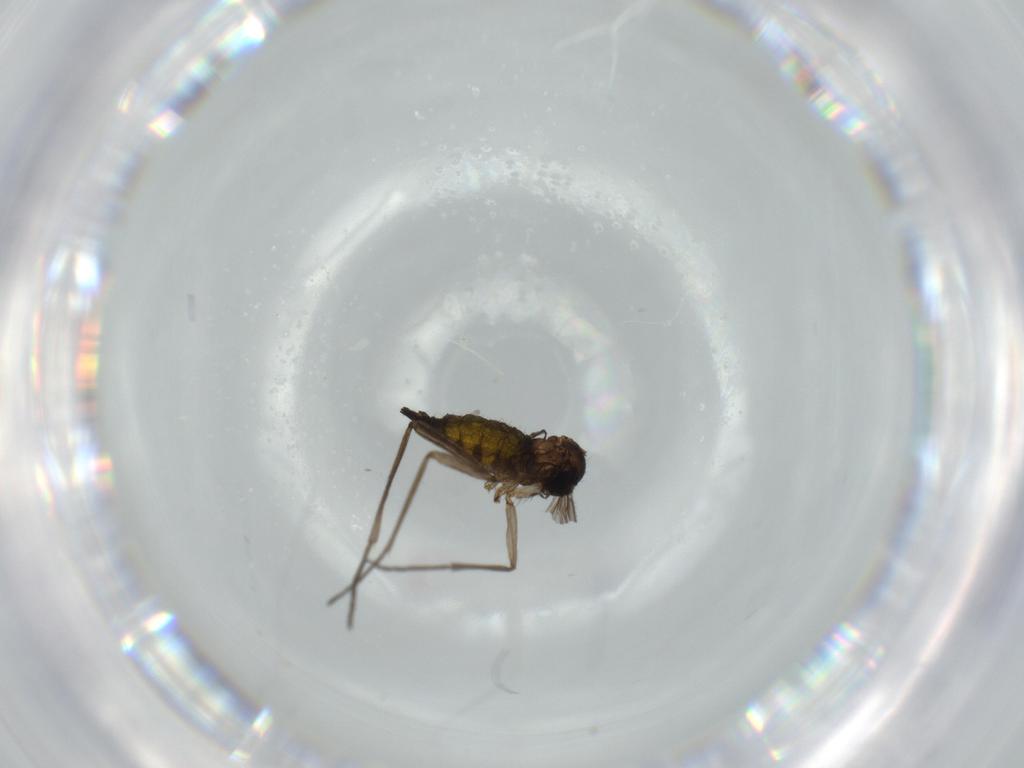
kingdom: Animalia
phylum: Arthropoda
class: Insecta
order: Diptera
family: Sciaridae
